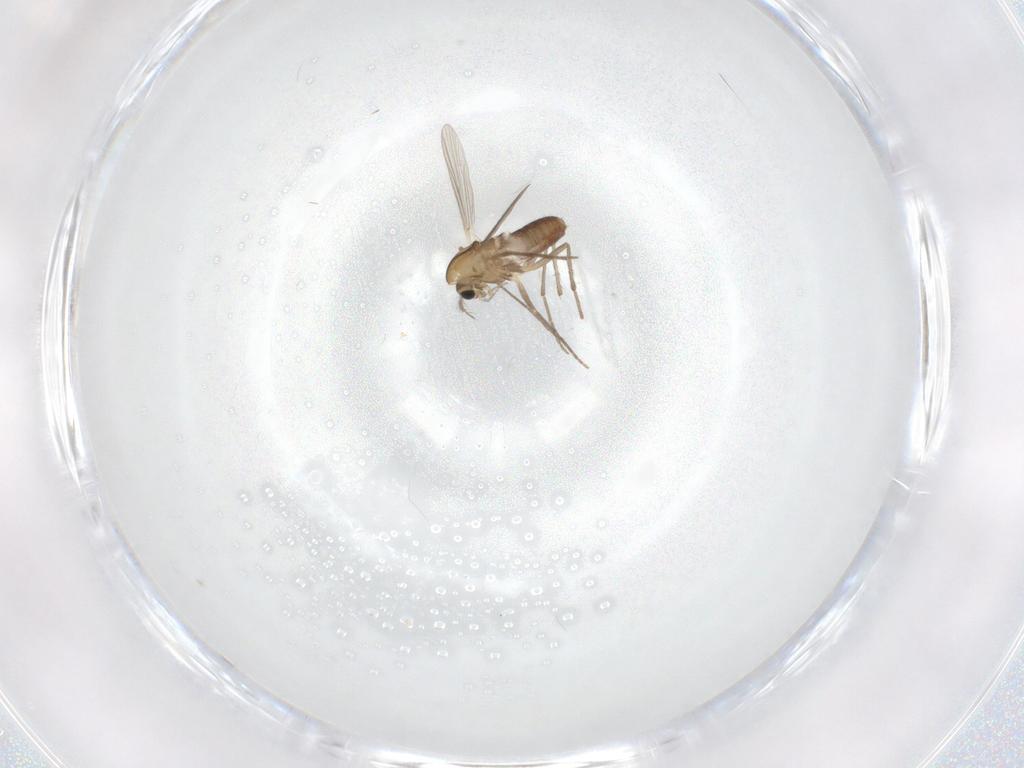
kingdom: Animalia
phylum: Arthropoda
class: Insecta
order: Diptera
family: Chironomidae
